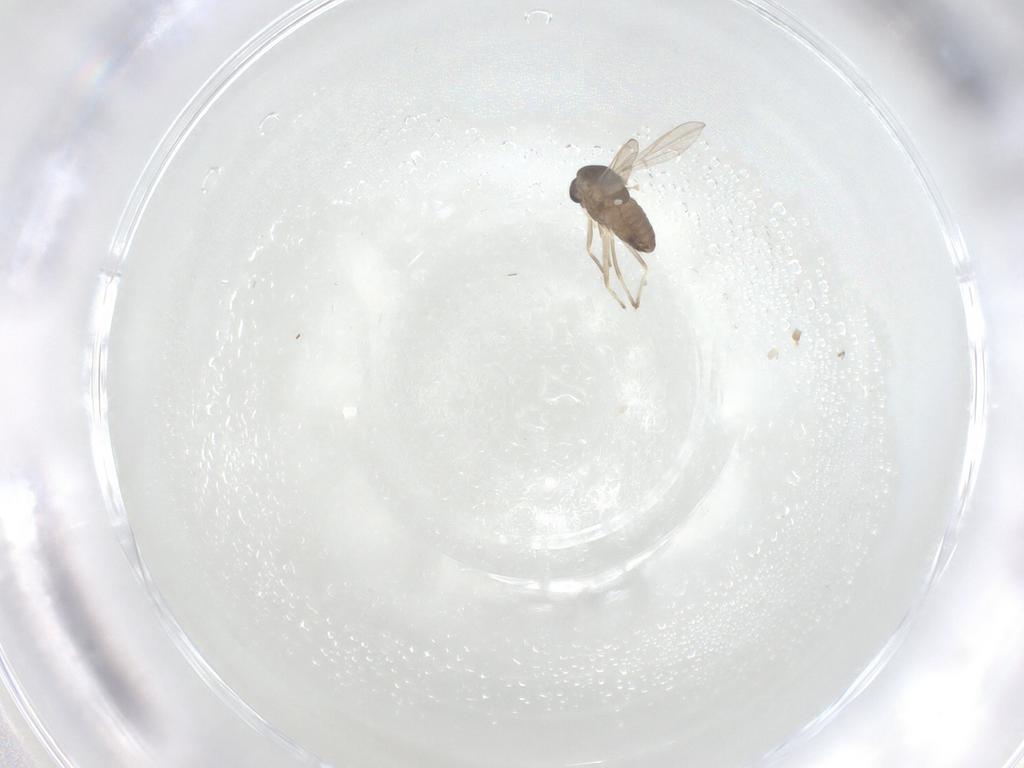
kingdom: Animalia
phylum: Arthropoda
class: Insecta
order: Diptera
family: Chironomidae
